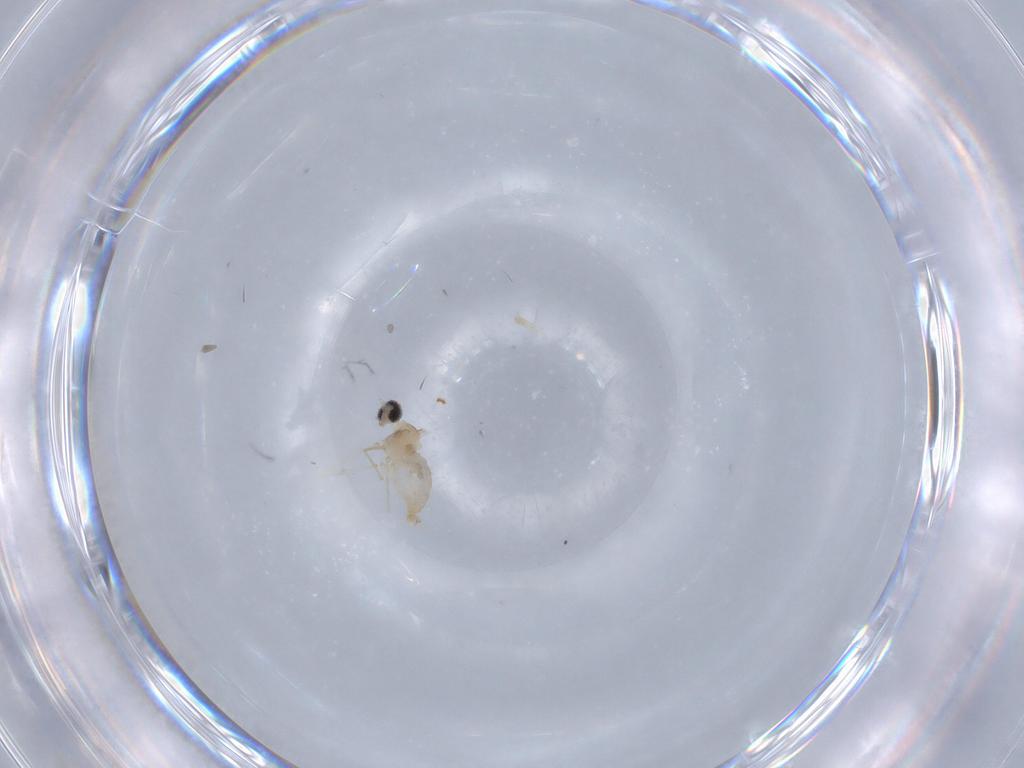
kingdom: Animalia
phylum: Arthropoda
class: Insecta
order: Diptera
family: Cecidomyiidae
